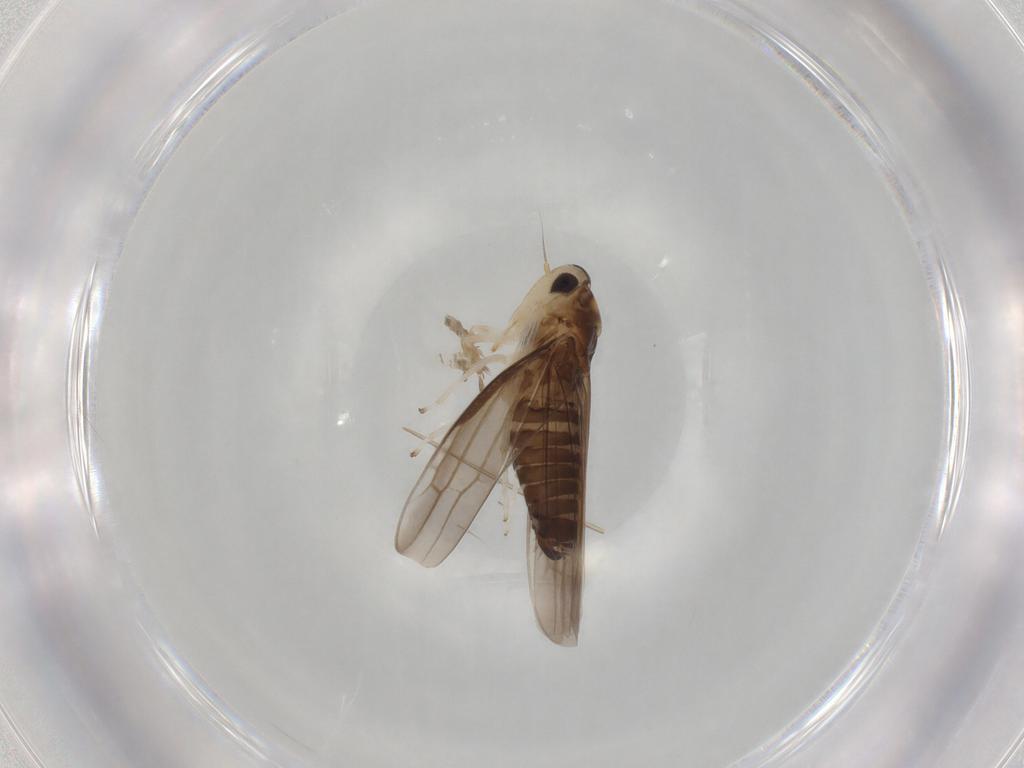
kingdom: Animalia
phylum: Arthropoda
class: Insecta
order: Hemiptera
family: Cicadellidae
